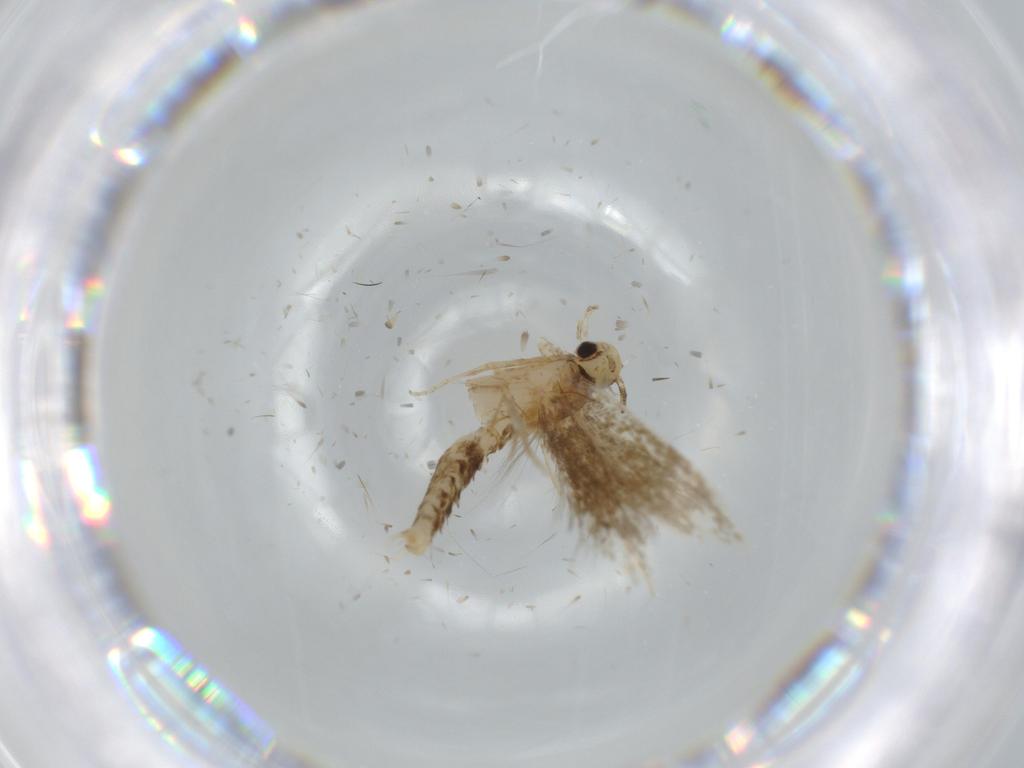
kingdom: Animalia
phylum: Arthropoda
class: Insecta
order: Lepidoptera
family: Tineidae
